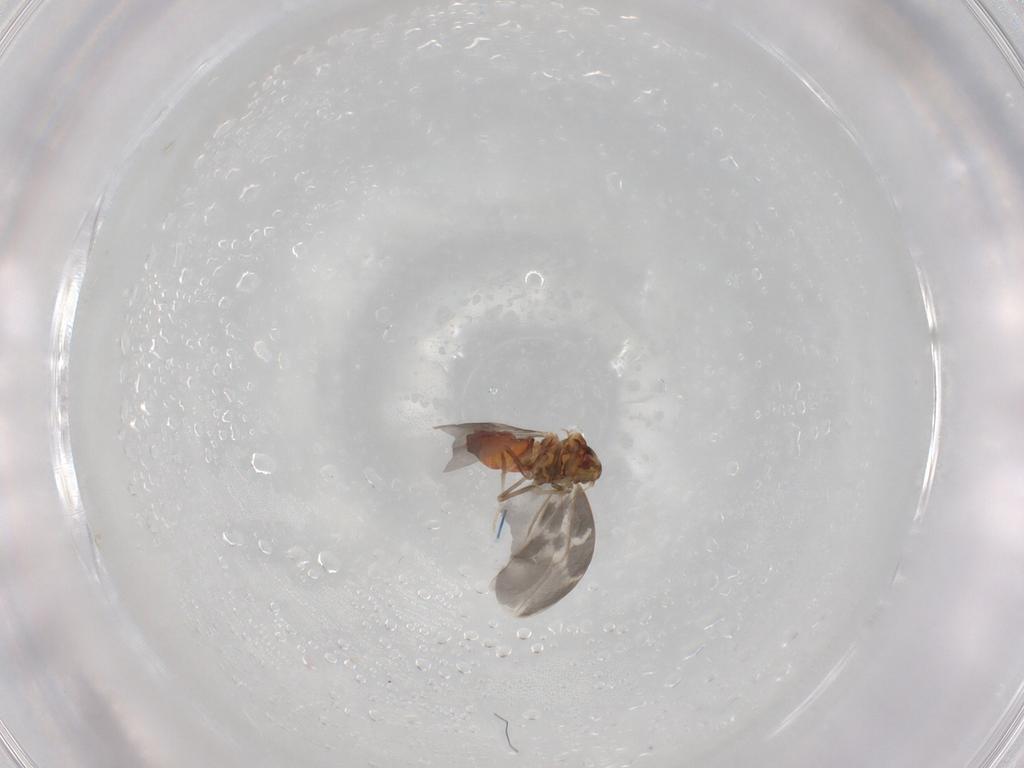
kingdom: Animalia
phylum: Arthropoda
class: Insecta
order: Hemiptera
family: Aleyrodidae
